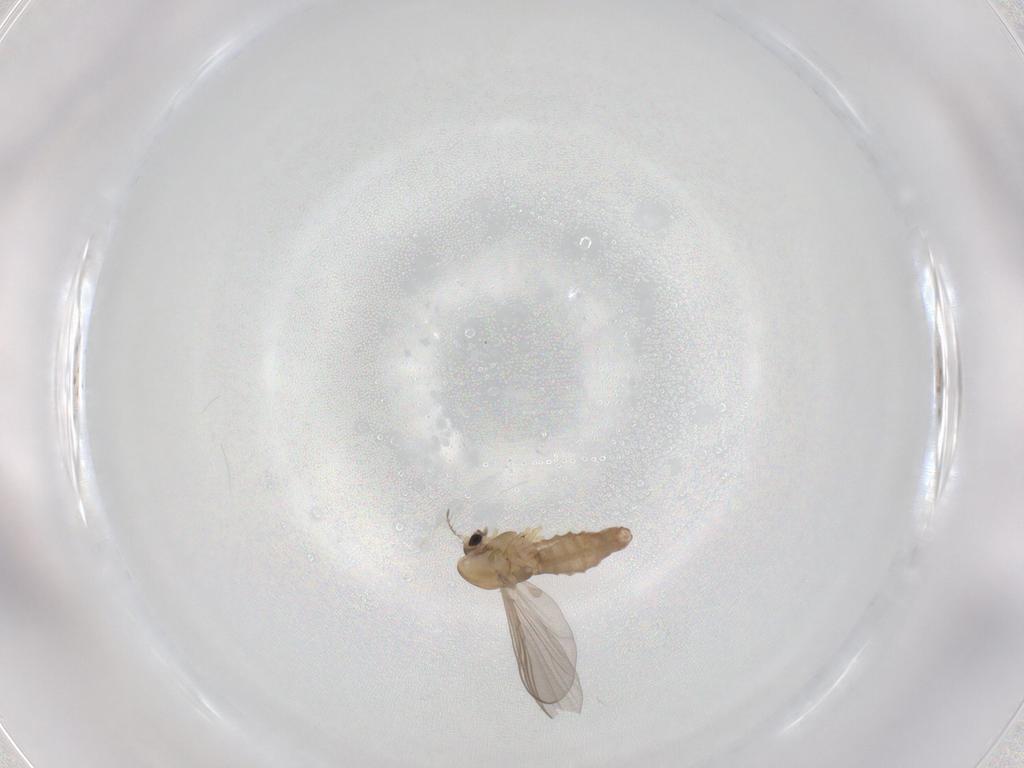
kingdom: Animalia
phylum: Arthropoda
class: Insecta
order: Diptera
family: Chironomidae
